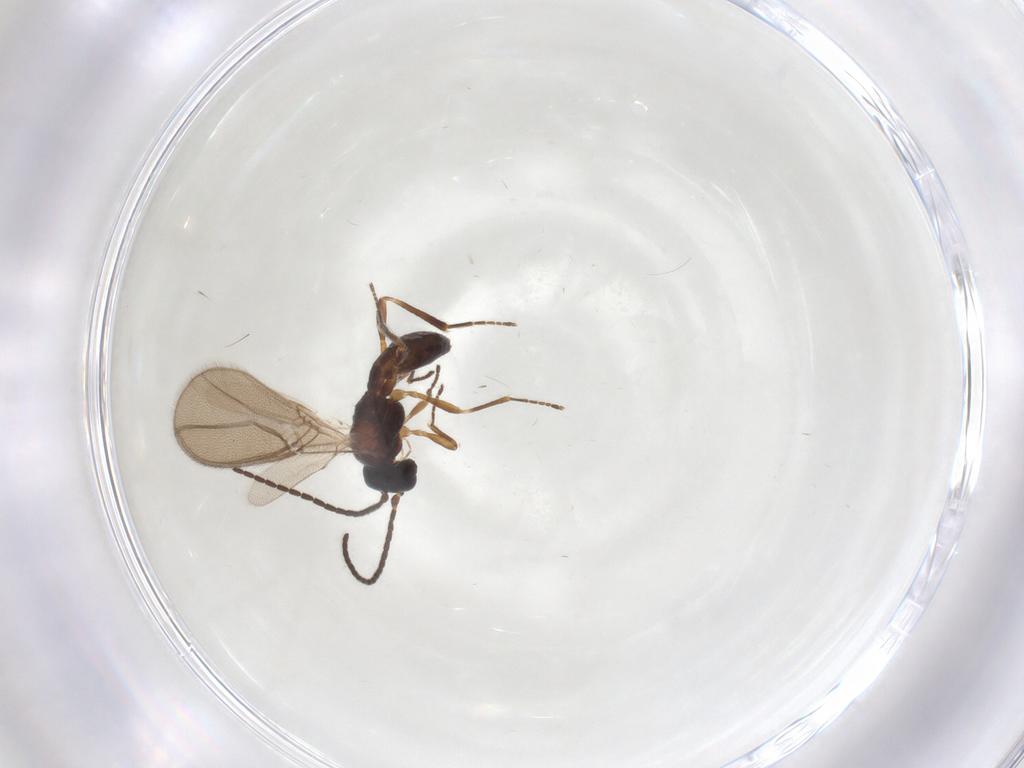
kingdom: Animalia
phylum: Arthropoda
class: Insecta
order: Hymenoptera
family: Braconidae
